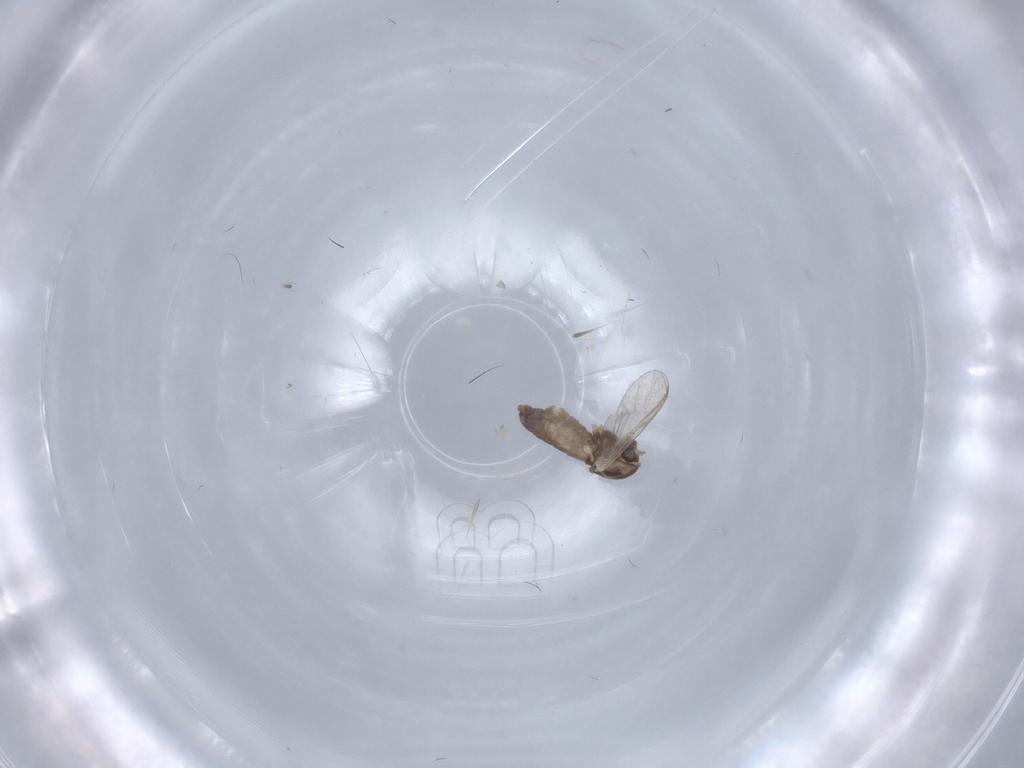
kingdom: Animalia
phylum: Arthropoda
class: Insecta
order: Diptera
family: Chironomidae
